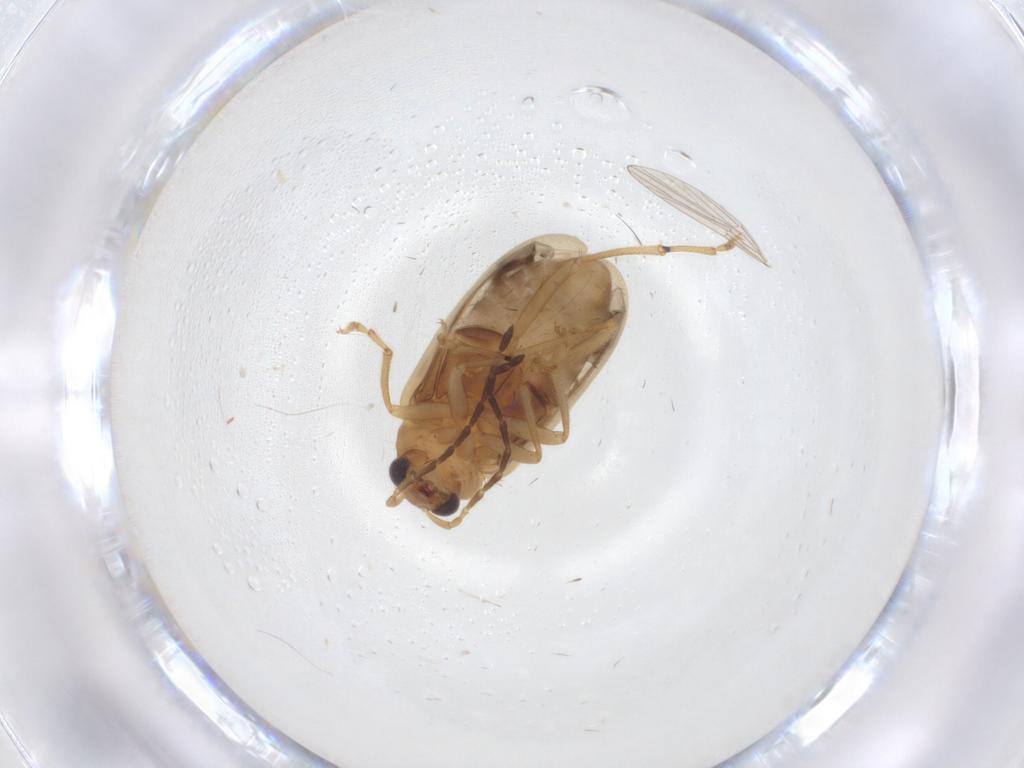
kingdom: Animalia
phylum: Arthropoda
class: Insecta
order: Coleoptera
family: Chrysomelidae
